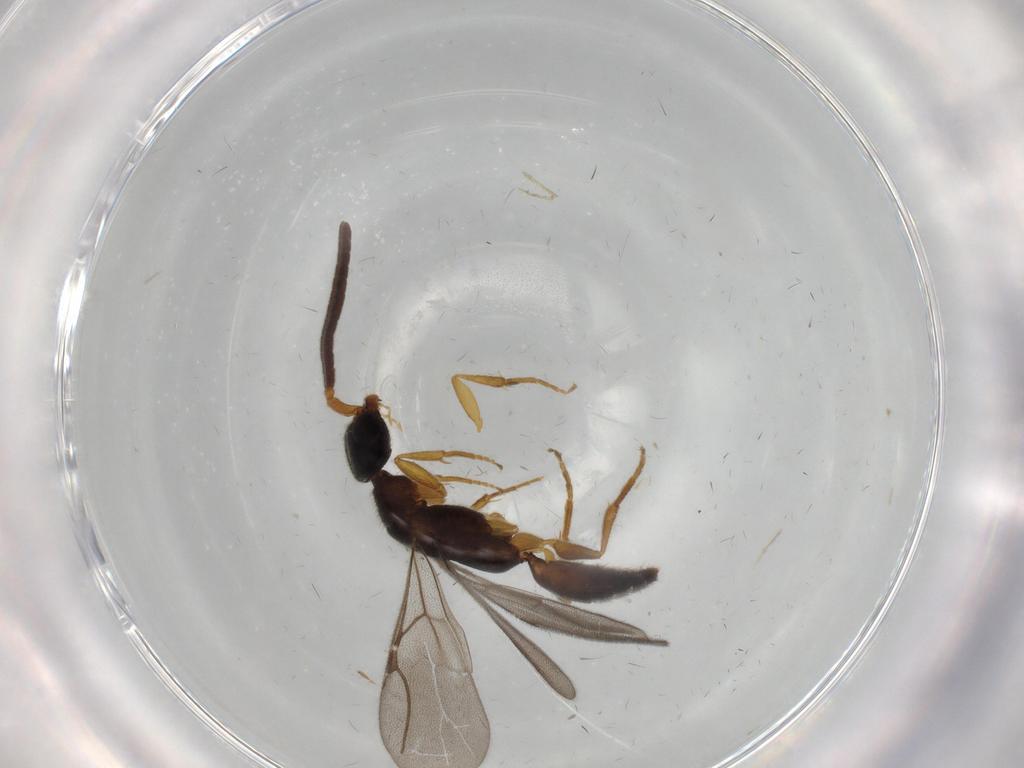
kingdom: Animalia
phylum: Arthropoda
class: Insecta
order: Hymenoptera
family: Bethylidae
